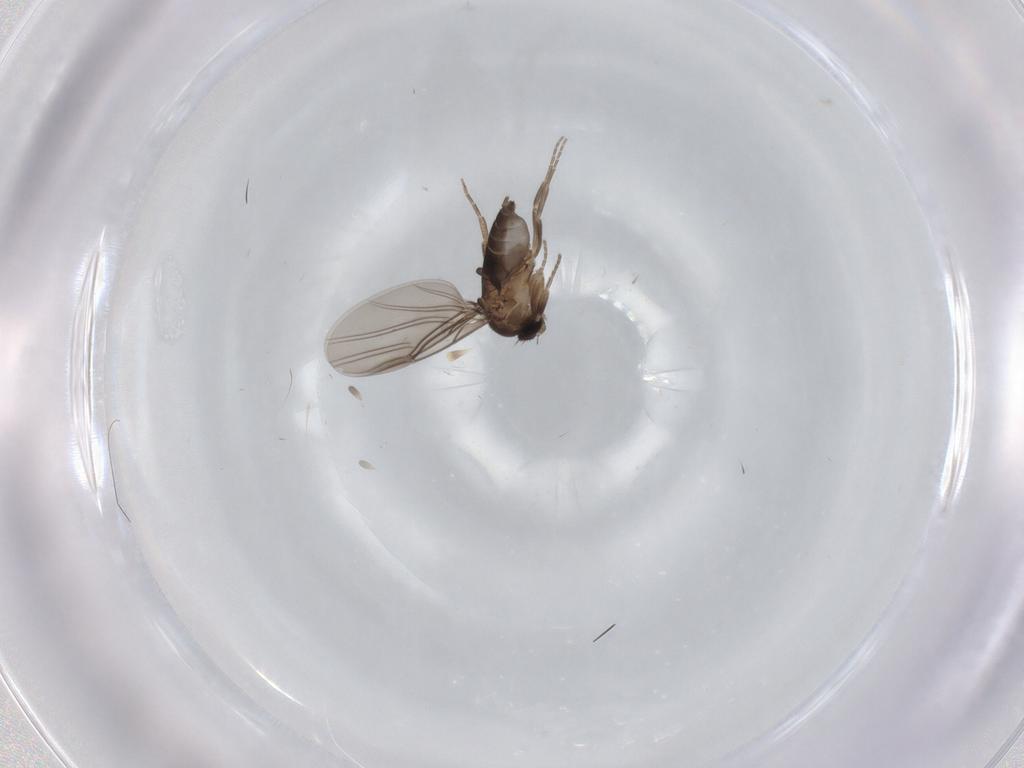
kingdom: Animalia
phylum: Arthropoda
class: Insecta
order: Diptera
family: Phoridae
